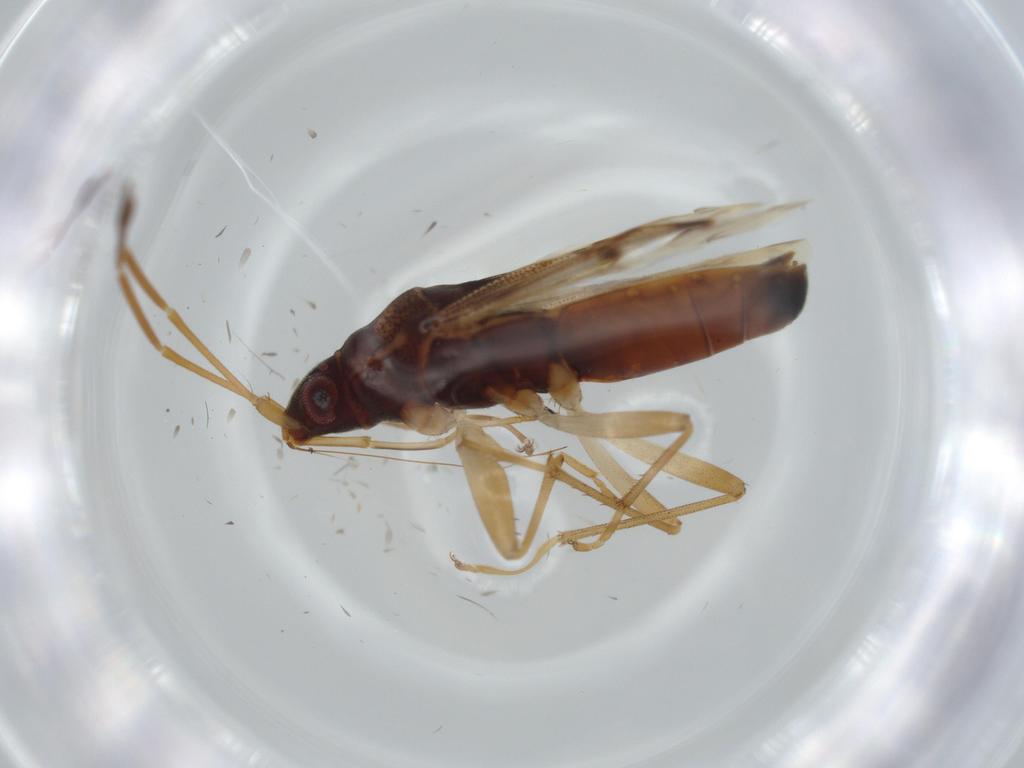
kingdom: Animalia
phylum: Arthropoda
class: Insecta
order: Hemiptera
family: Rhyparochromidae
